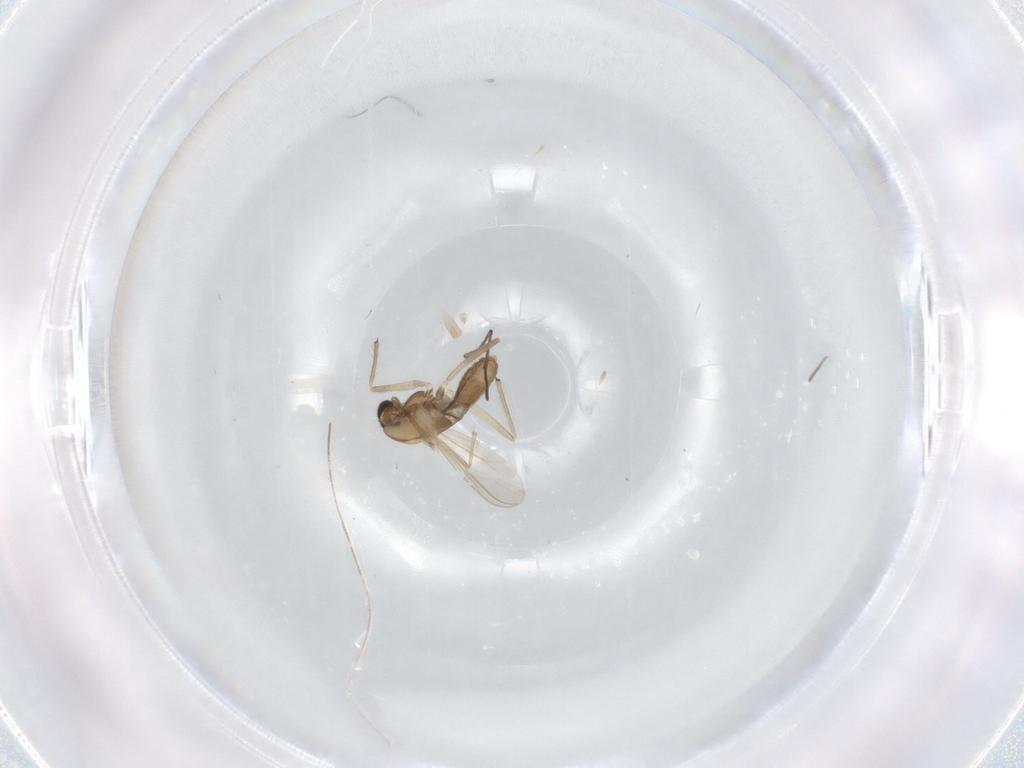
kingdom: Animalia
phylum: Arthropoda
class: Insecta
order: Diptera
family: Chironomidae
